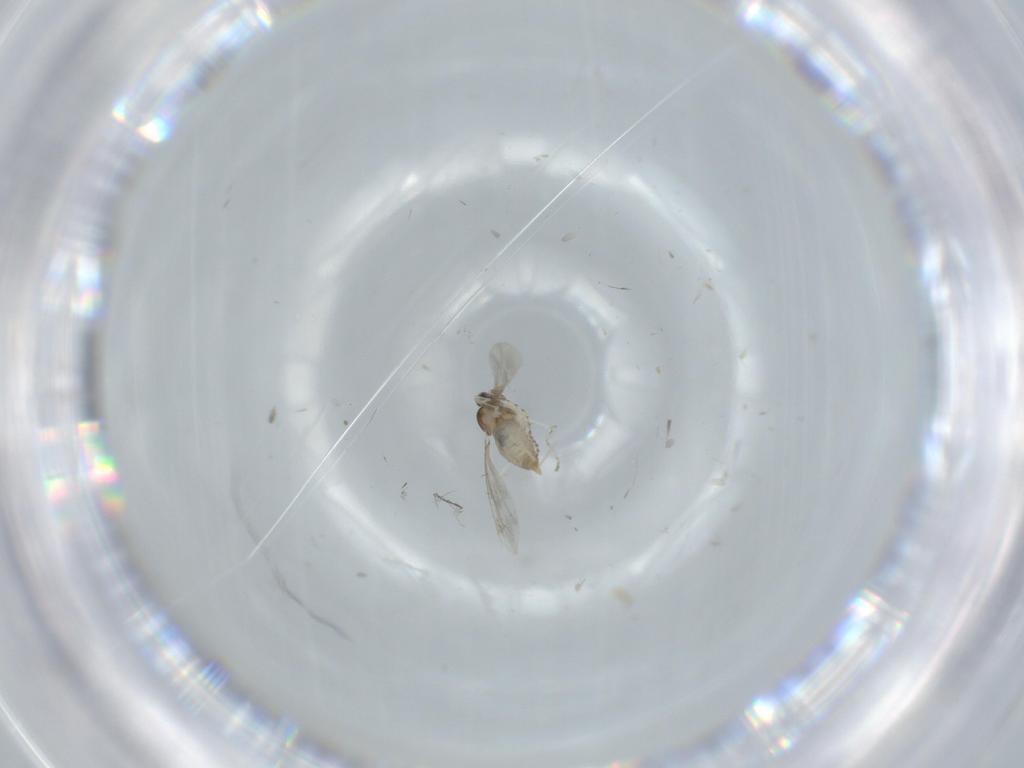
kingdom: Animalia
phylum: Arthropoda
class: Insecta
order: Diptera
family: Cecidomyiidae
